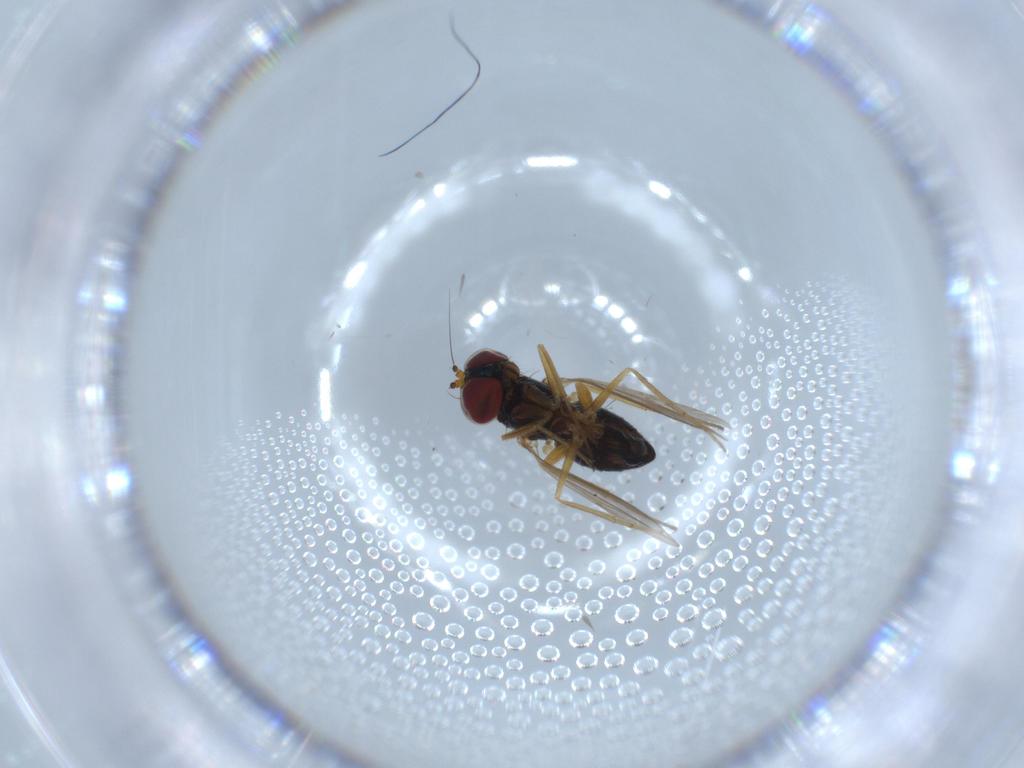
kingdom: Animalia
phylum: Arthropoda
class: Insecta
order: Diptera
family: Dolichopodidae
